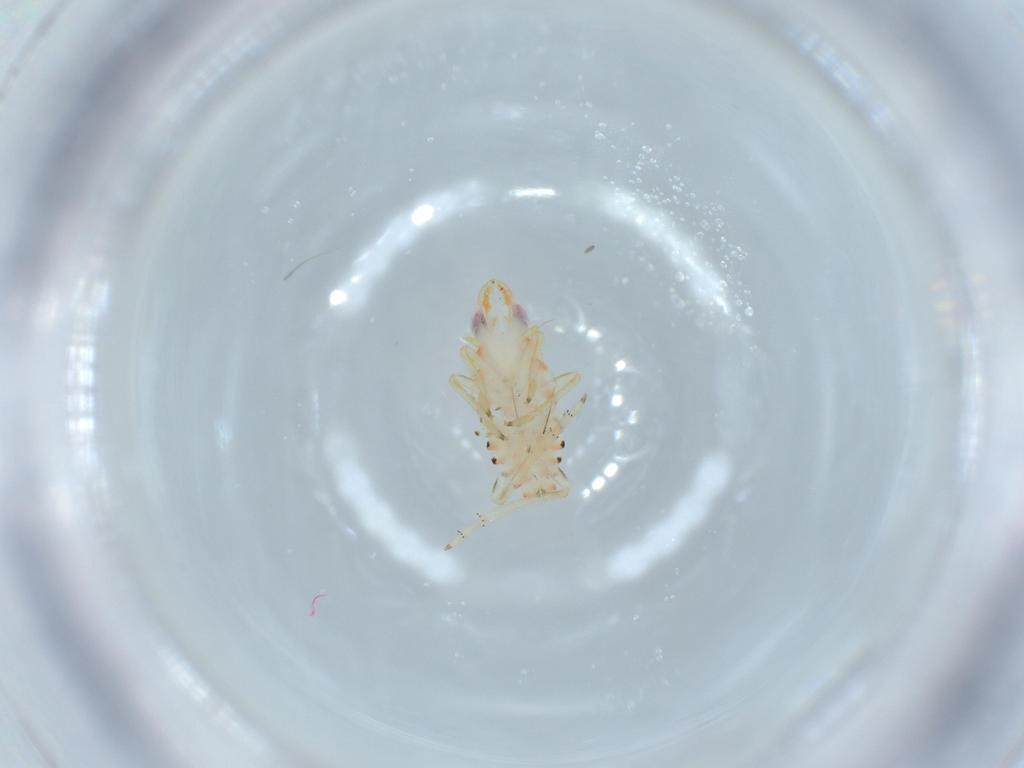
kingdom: Animalia
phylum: Arthropoda
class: Insecta
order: Hemiptera
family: Tropiduchidae
